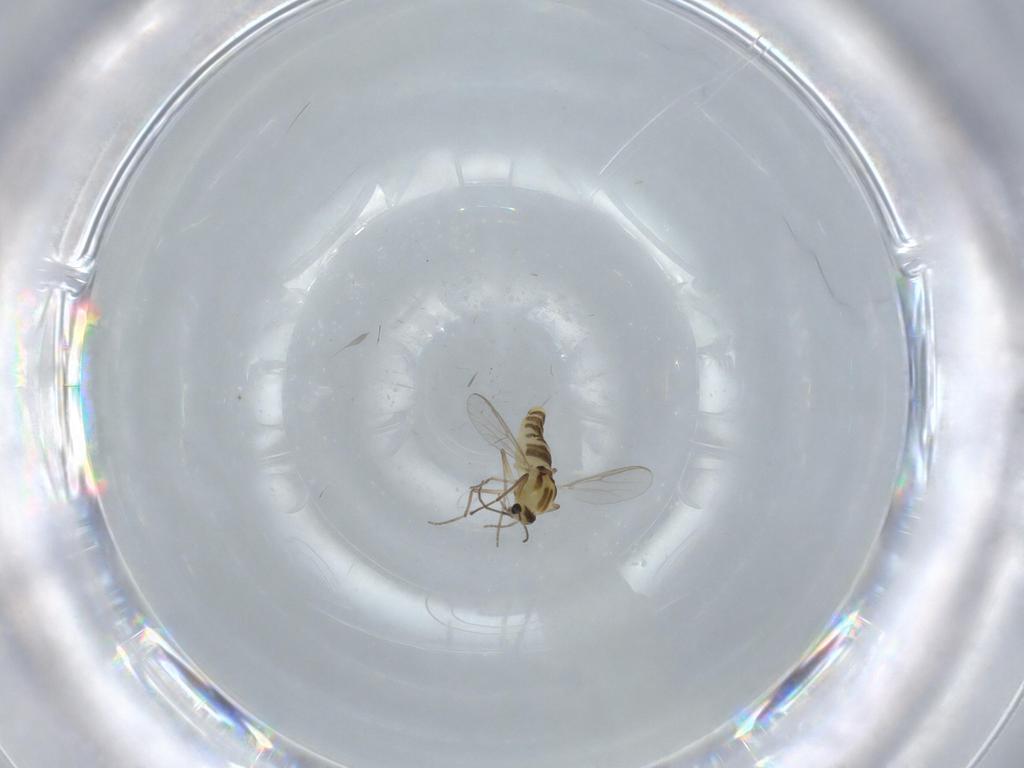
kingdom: Animalia
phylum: Arthropoda
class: Insecta
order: Diptera
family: Chironomidae
